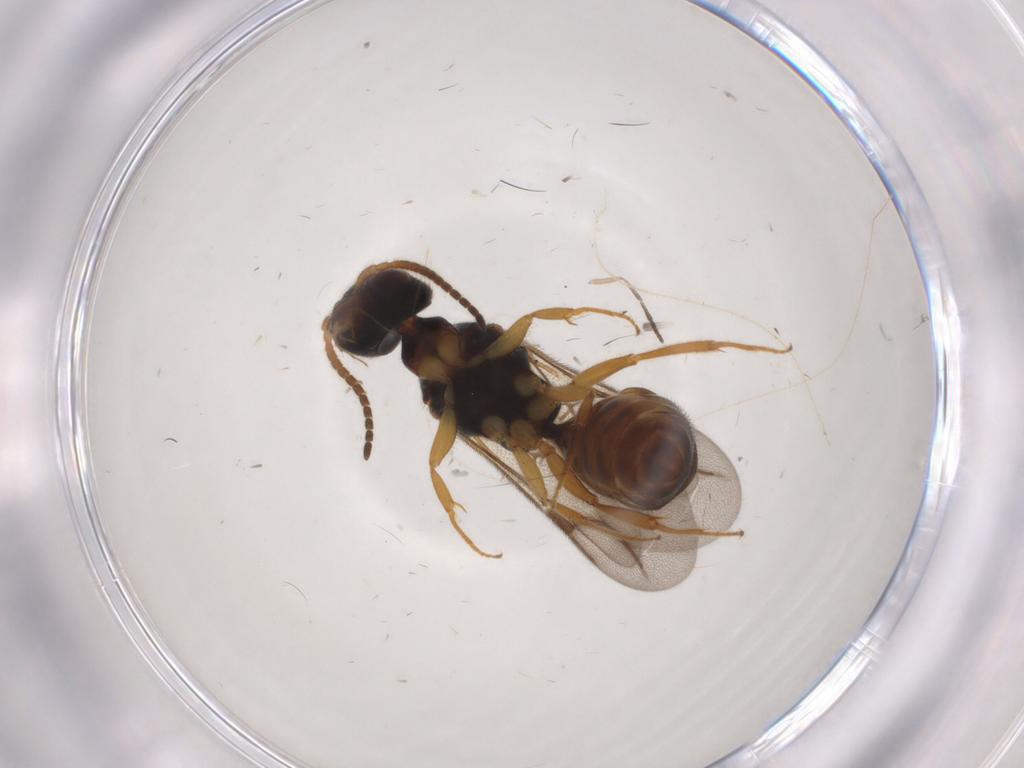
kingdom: Animalia
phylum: Arthropoda
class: Insecta
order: Hymenoptera
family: Bethylidae
